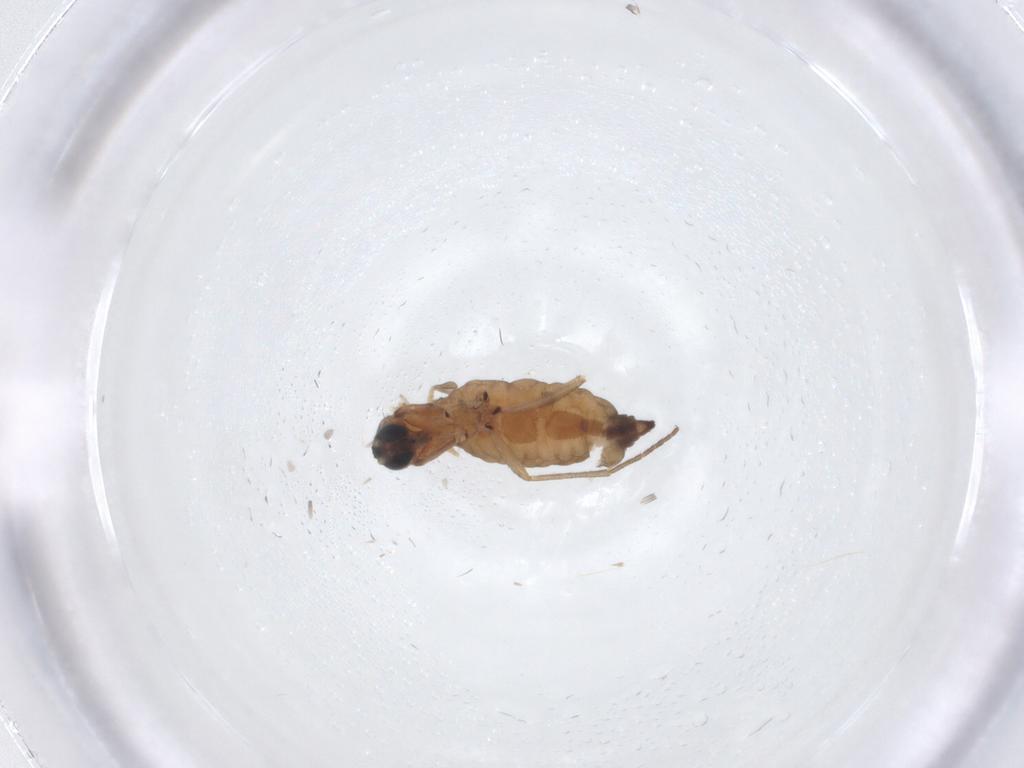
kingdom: Animalia
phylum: Arthropoda
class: Insecta
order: Diptera
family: Sciaridae
